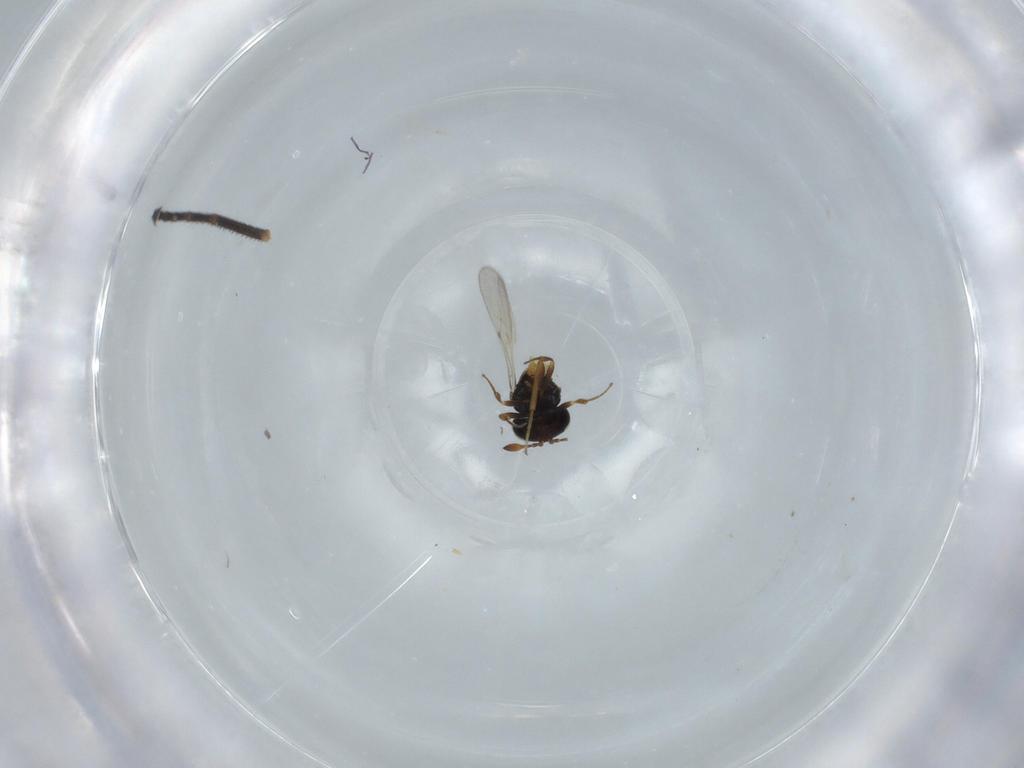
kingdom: Animalia
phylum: Arthropoda
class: Insecta
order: Hymenoptera
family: Scelionidae
